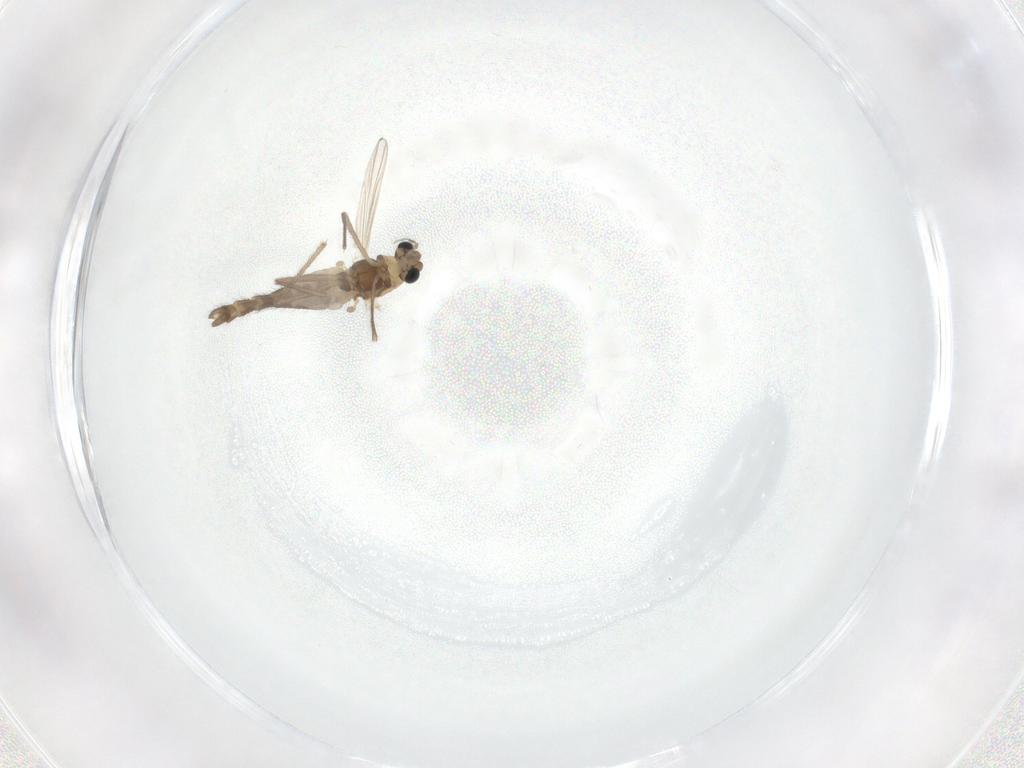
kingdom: Animalia
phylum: Arthropoda
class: Insecta
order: Diptera
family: Chironomidae
